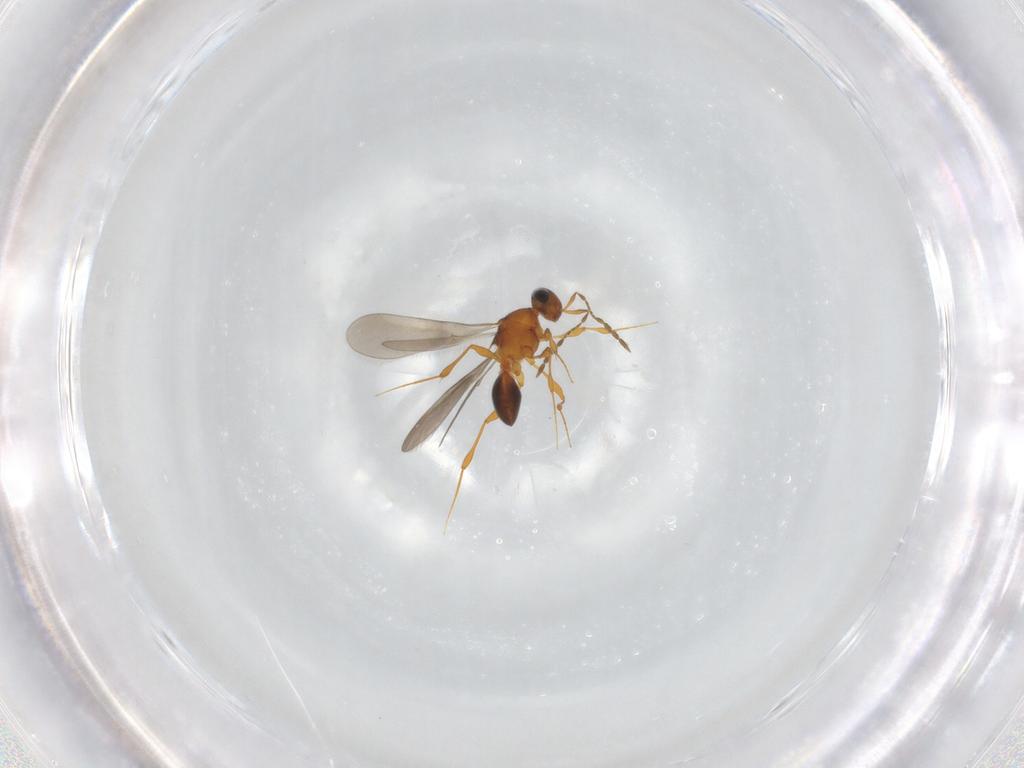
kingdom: Animalia
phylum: Arthropoda
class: Insecta
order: Hymenoptera
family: Platygastridae
